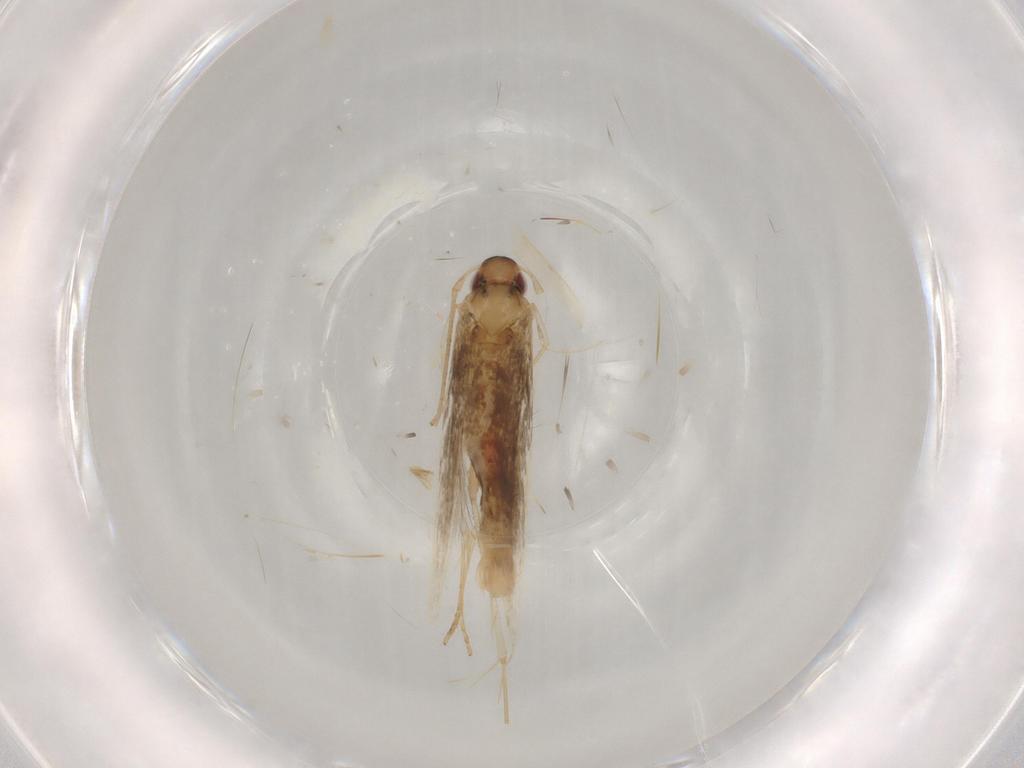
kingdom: Animalia
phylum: Arthropoda
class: Insecta
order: Lepidoptera
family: Cosmopterigidae
